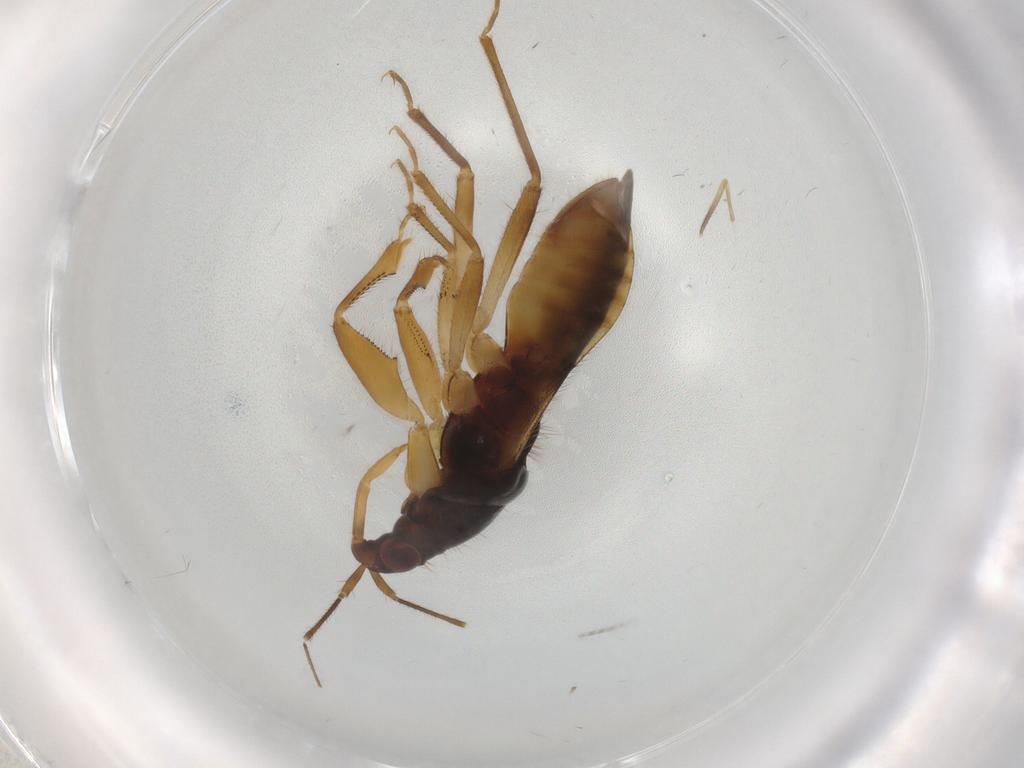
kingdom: Animalia
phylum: Arthropoda
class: Insecta
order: Hemiptera
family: Nabidae
